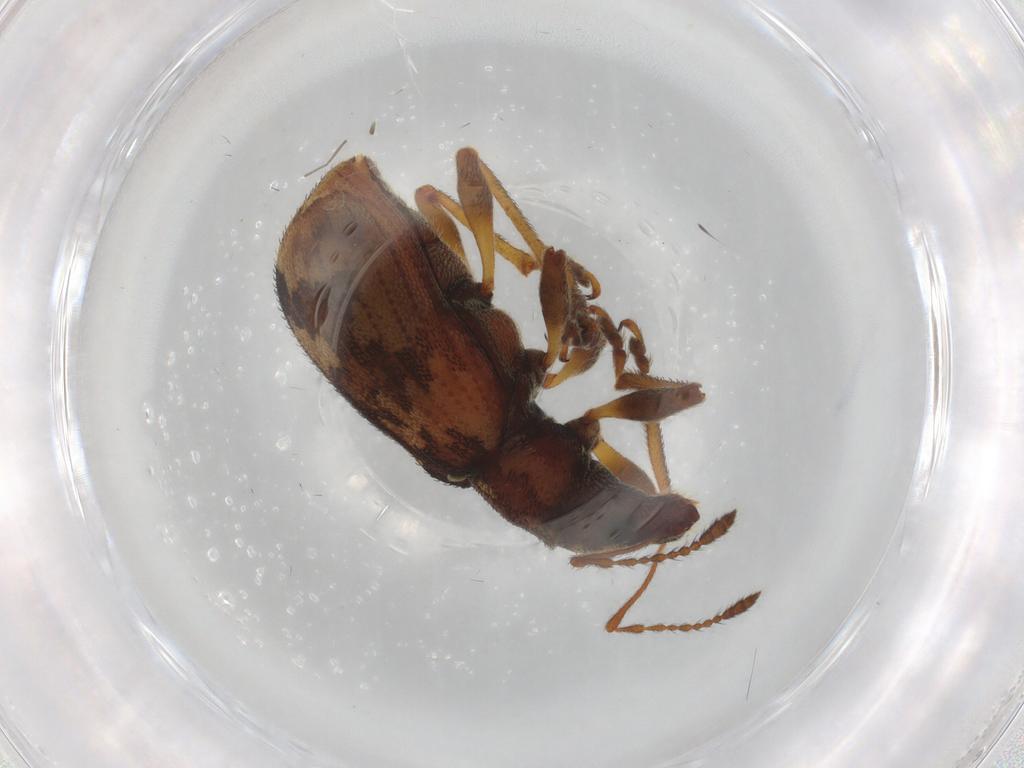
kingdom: Animalia
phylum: Arthropoda
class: Insecta
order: Coleoptera
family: Curculionidae
